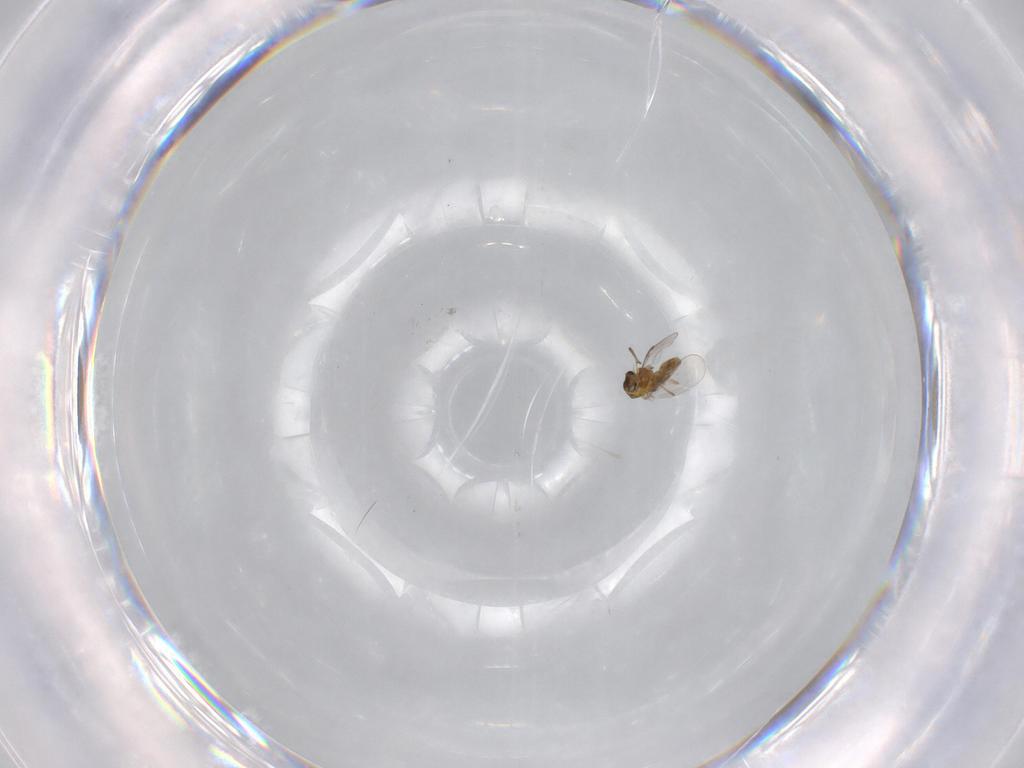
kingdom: Animalia
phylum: Arthropoda
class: Insecta
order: Diptera
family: Chironomidae
